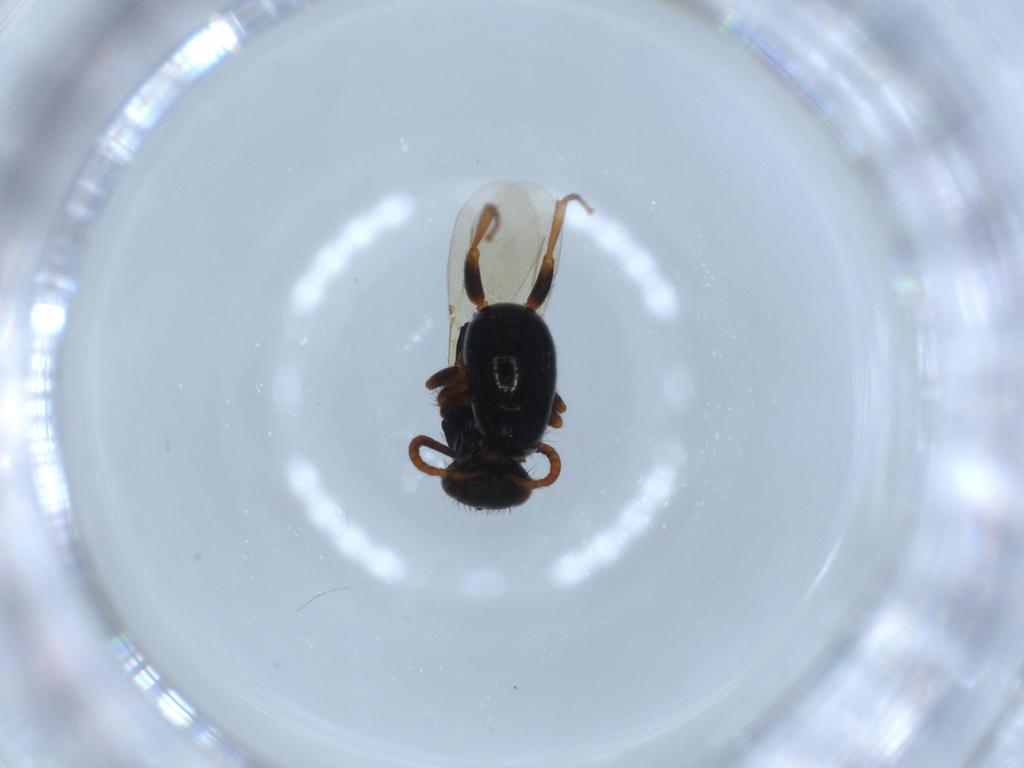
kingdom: Animalia
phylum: Arthropoda
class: Insecta
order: Hymenoptera
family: Bethylidae
